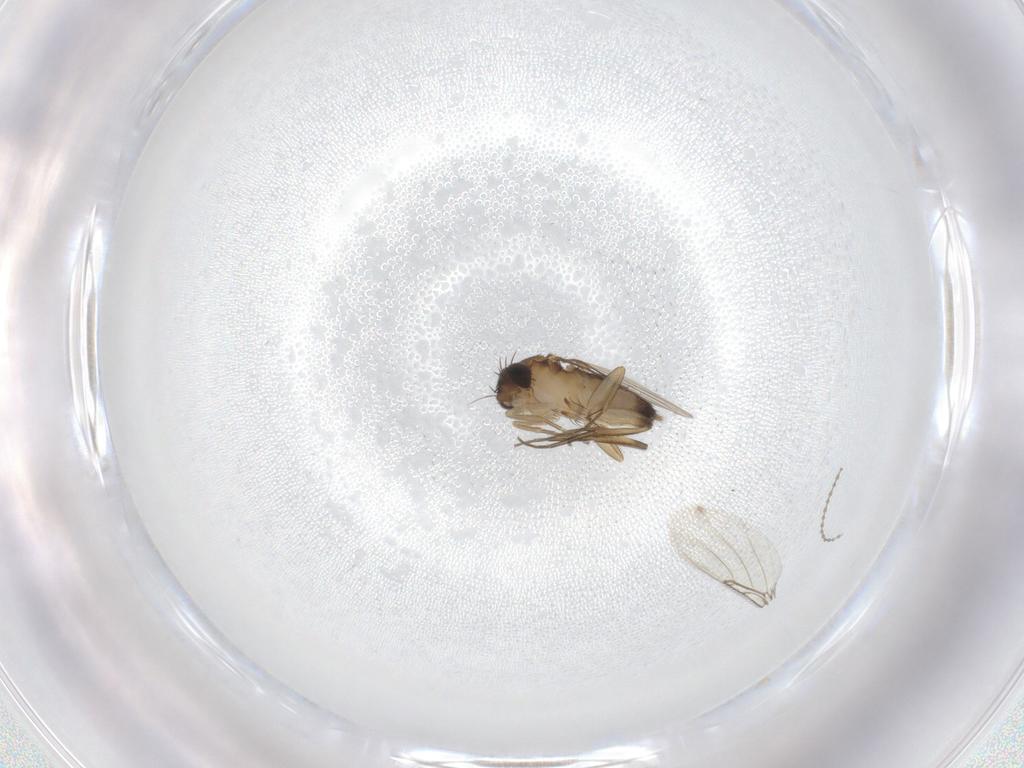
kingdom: Animalia
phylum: Arthropoda
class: Insecta
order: Diptera
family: Phoridae
